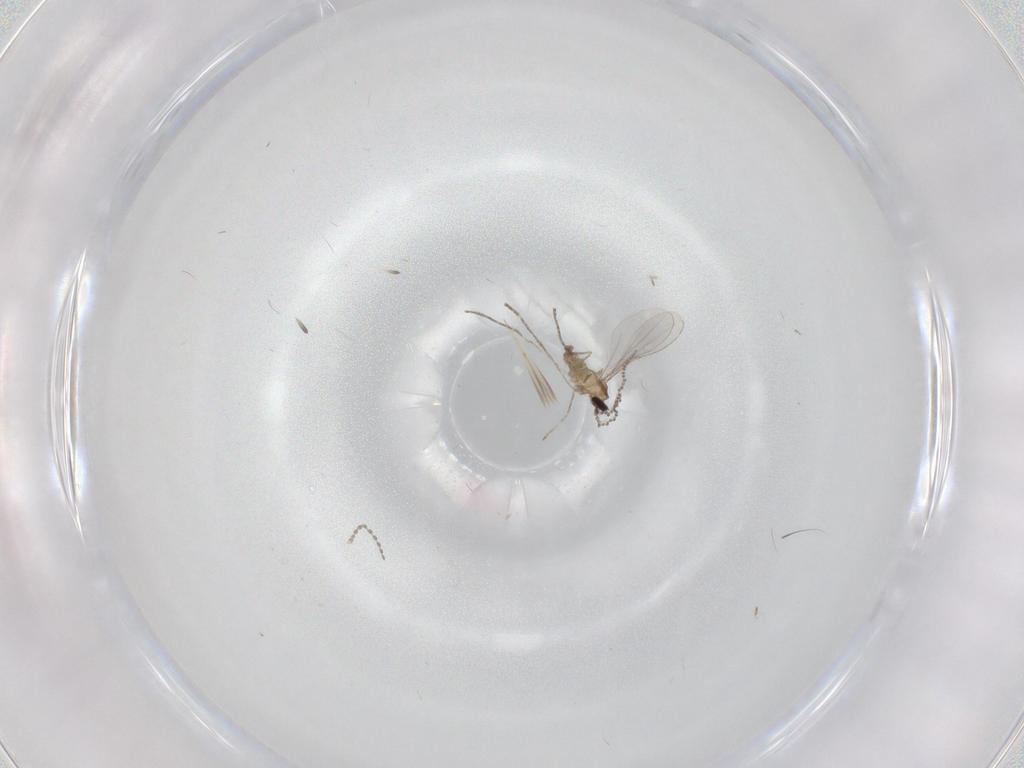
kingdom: Animalia
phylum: Arthropoda
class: Insecta
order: Diptera
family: Cecidomyiidae
